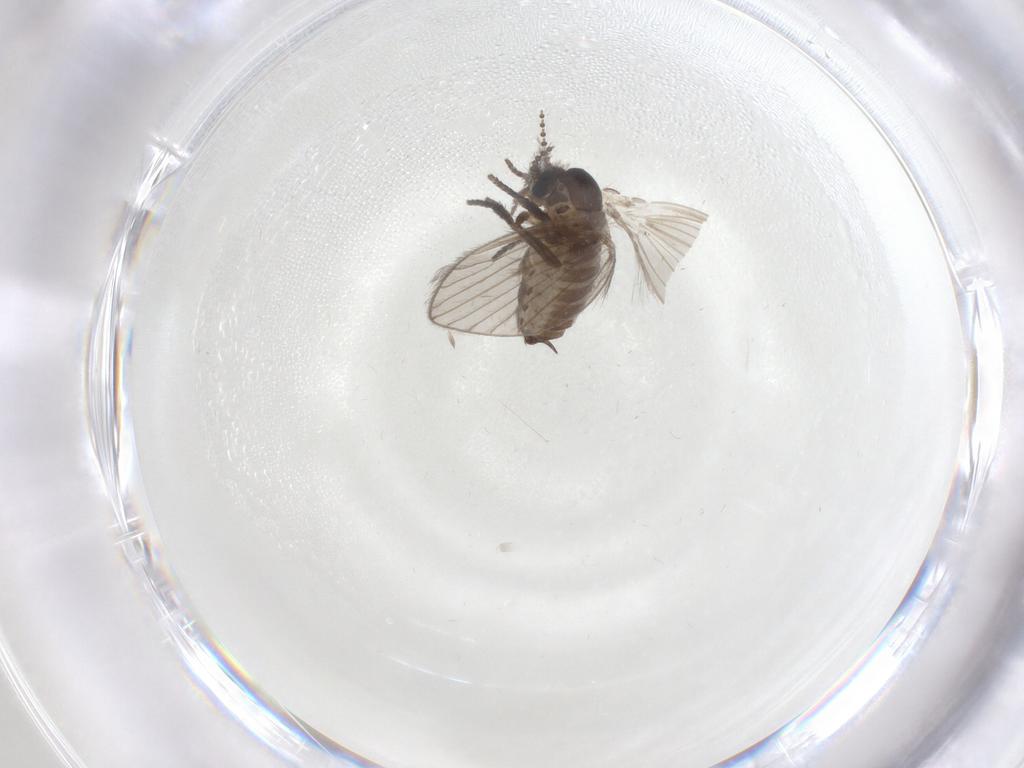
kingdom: Animalia
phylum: Arthropoda
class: Insecta
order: Diptera
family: Psychodidae
